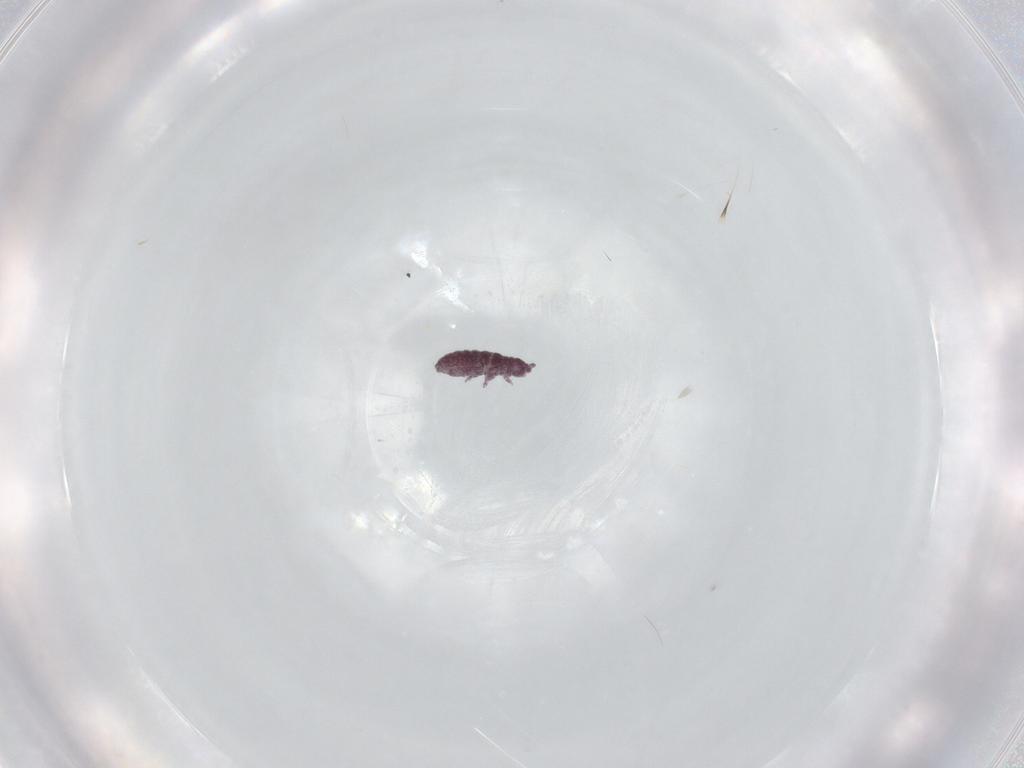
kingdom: Animalia
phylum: Arthropoda
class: Collembola
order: Poduromorpha
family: Brachystomellidae
